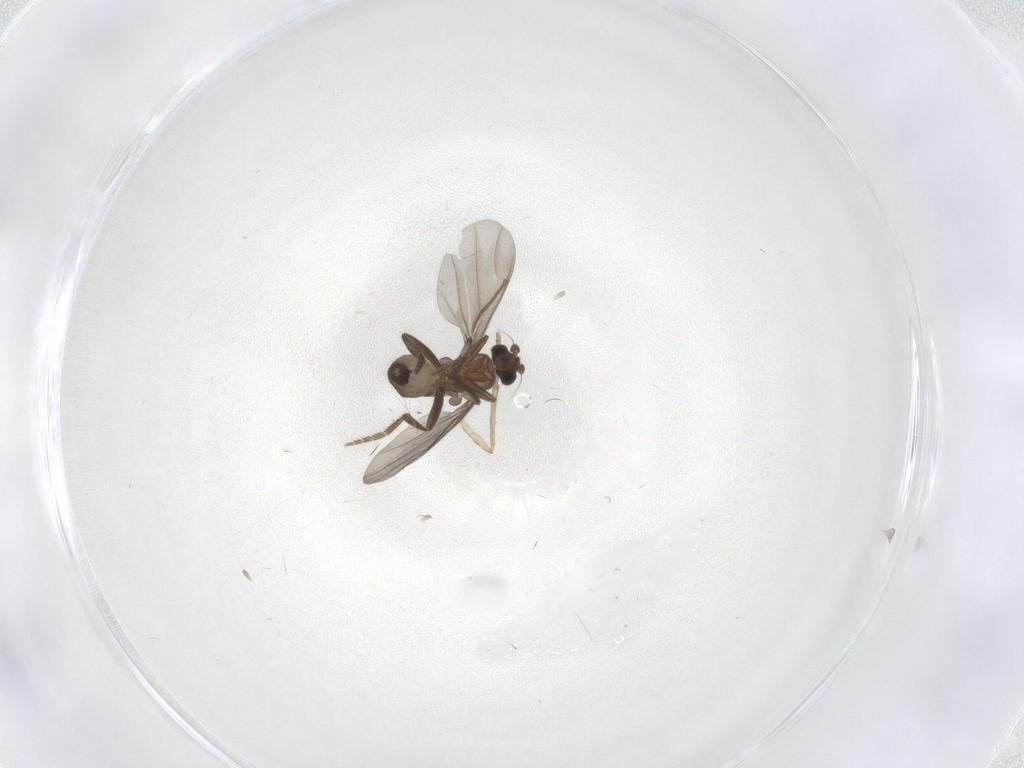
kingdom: Animalia
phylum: Arthropoda
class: Insecta
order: Diptera
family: Phoridae
